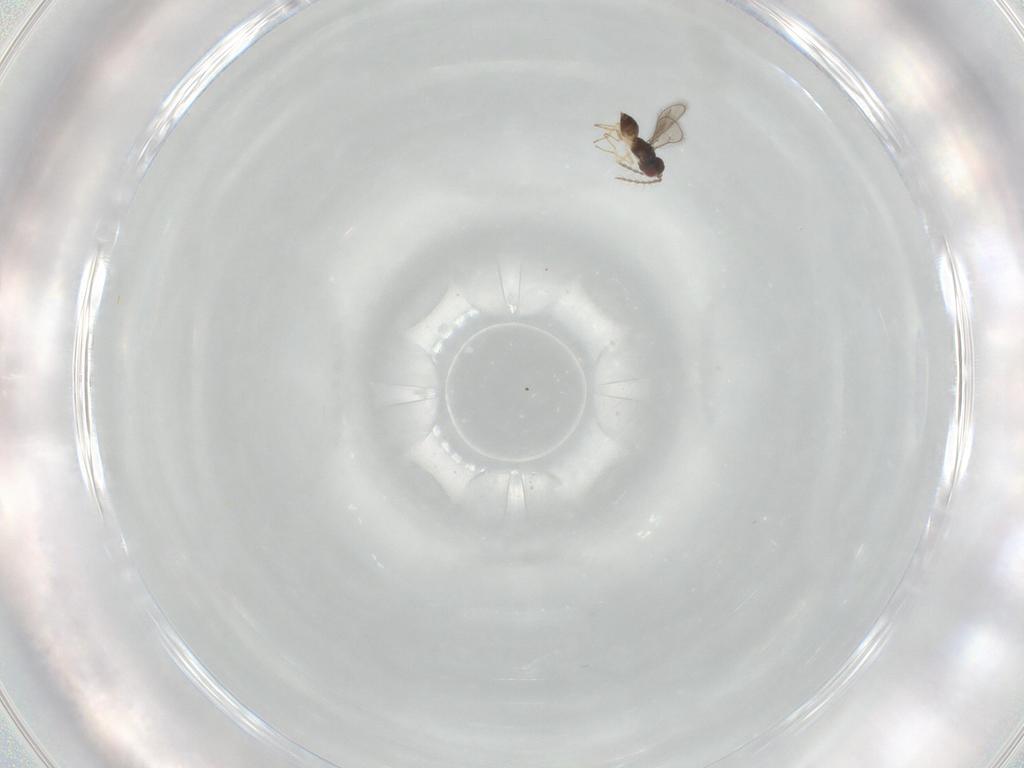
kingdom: Animalia
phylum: Arthropoda
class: Insecta
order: Hymenoptera
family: Eulophidae
